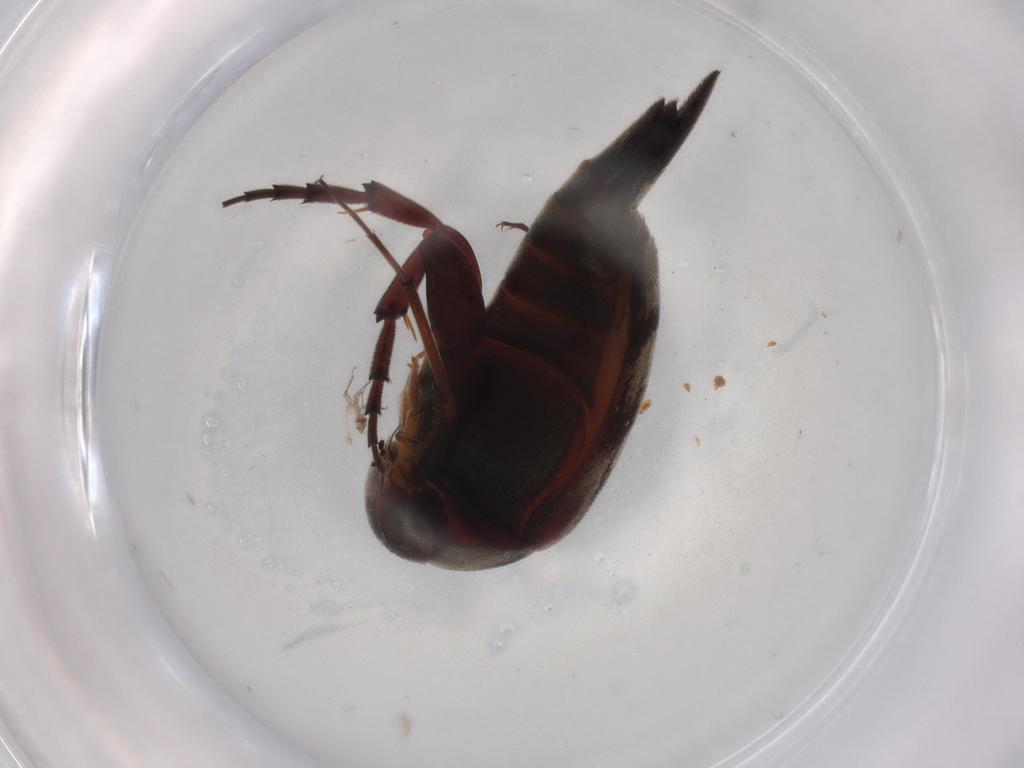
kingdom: Animalia
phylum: Arthropoda
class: Insecta
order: Coleoptera
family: Mordellidae
